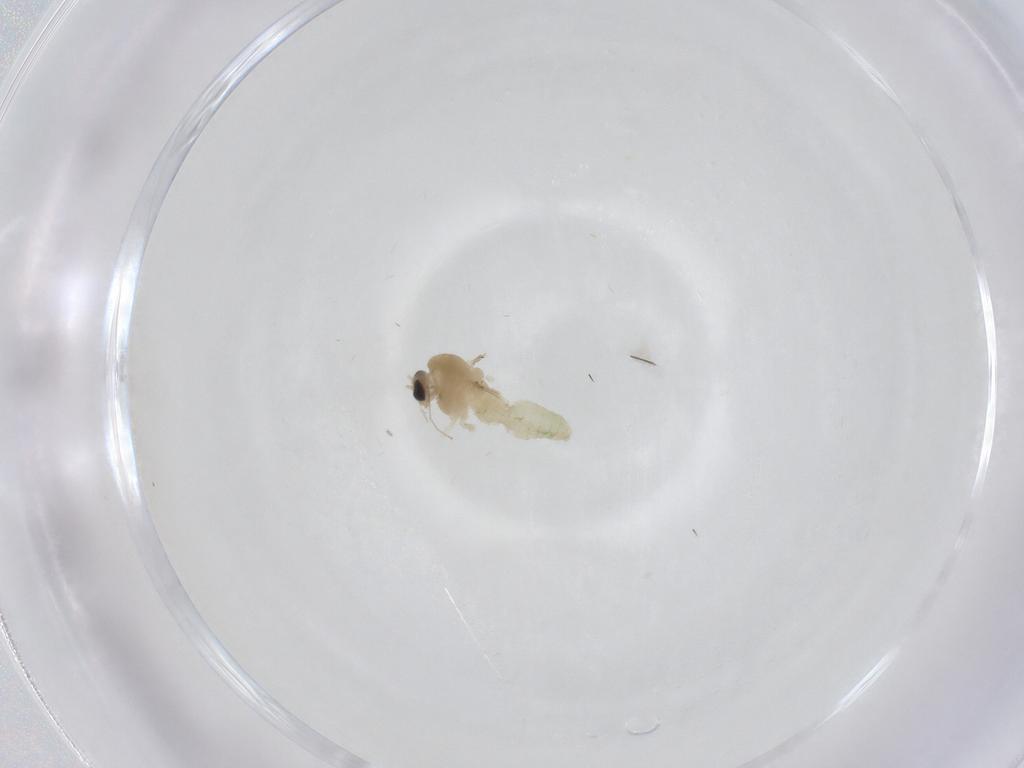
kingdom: Animalia
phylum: Arthropoda
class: Insecta
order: Diptera
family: Chironomidae
